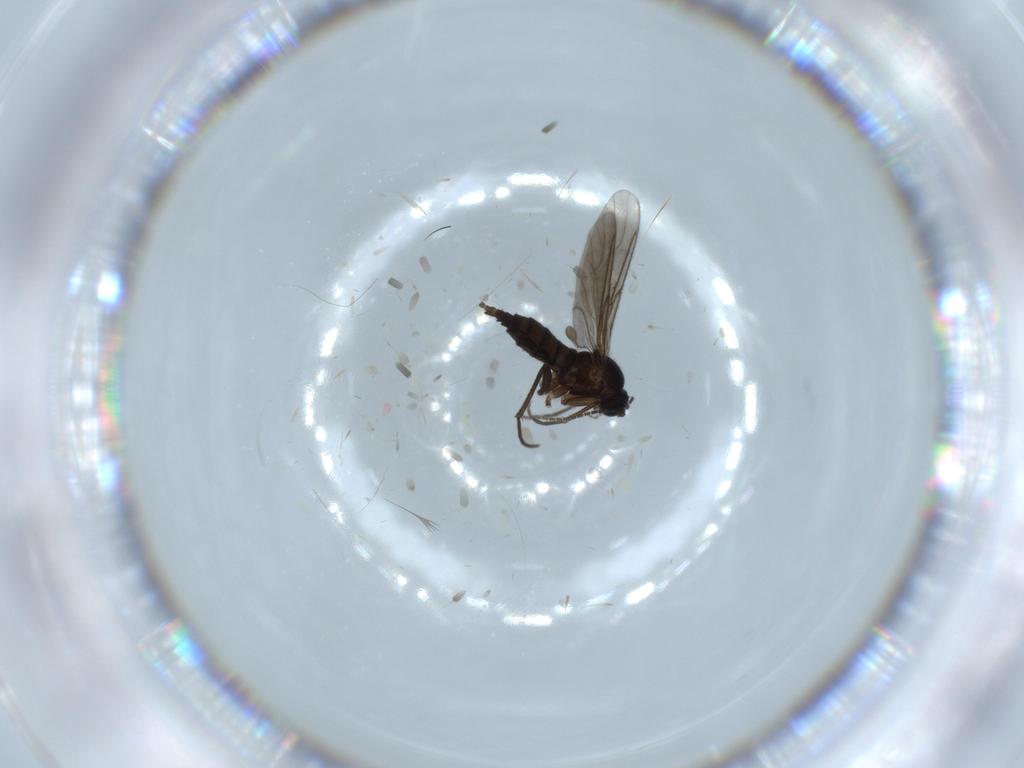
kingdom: Animalia
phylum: Arthropoda
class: Insecta
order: Diptera
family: Sciaridae
